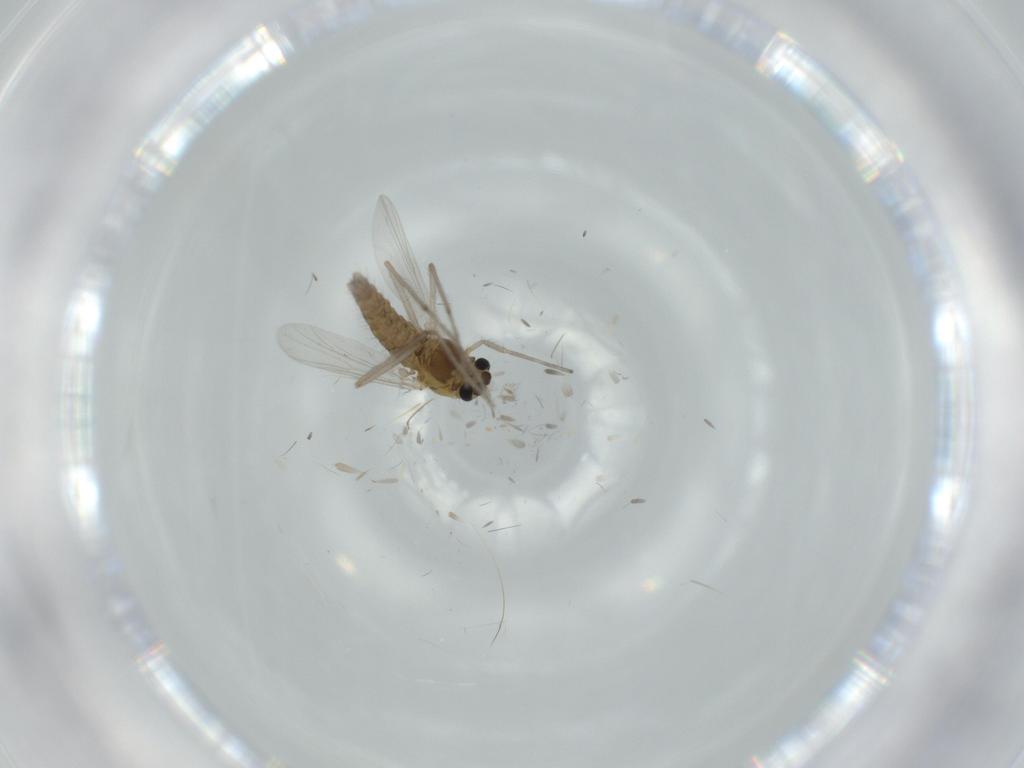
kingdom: Animalia
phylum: Arthropoda
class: Insecta
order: Diptera
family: Chironomidae
